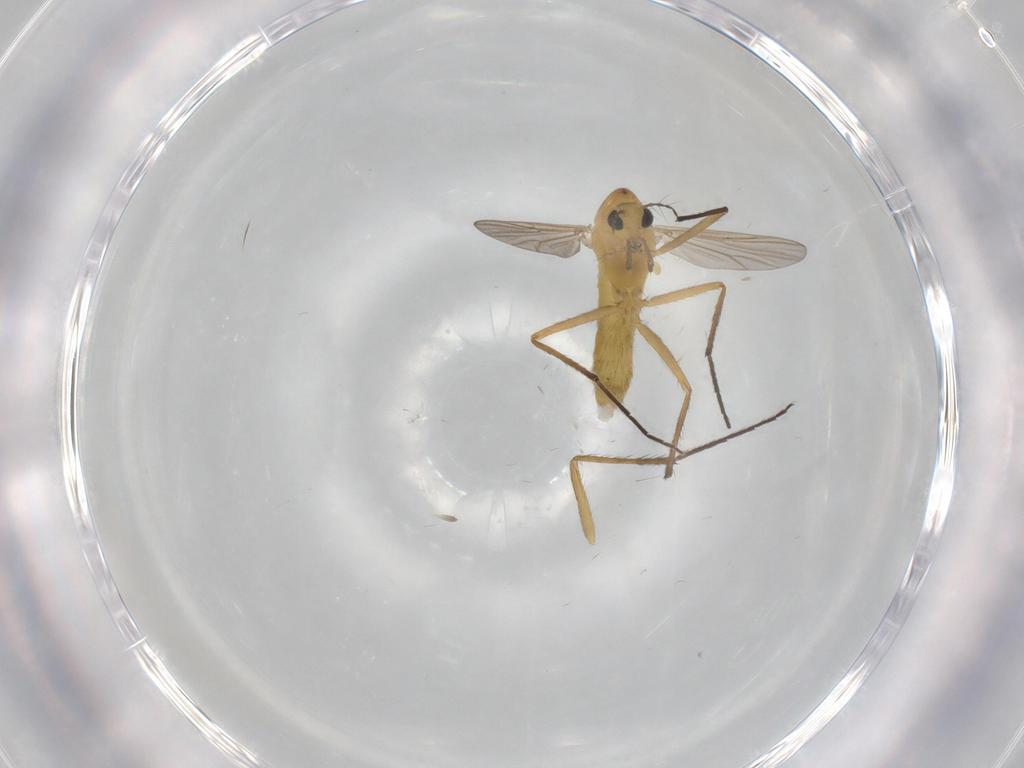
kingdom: Animalia
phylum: Arthropoda
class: Insecta
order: Diptera
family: Chironomidae
